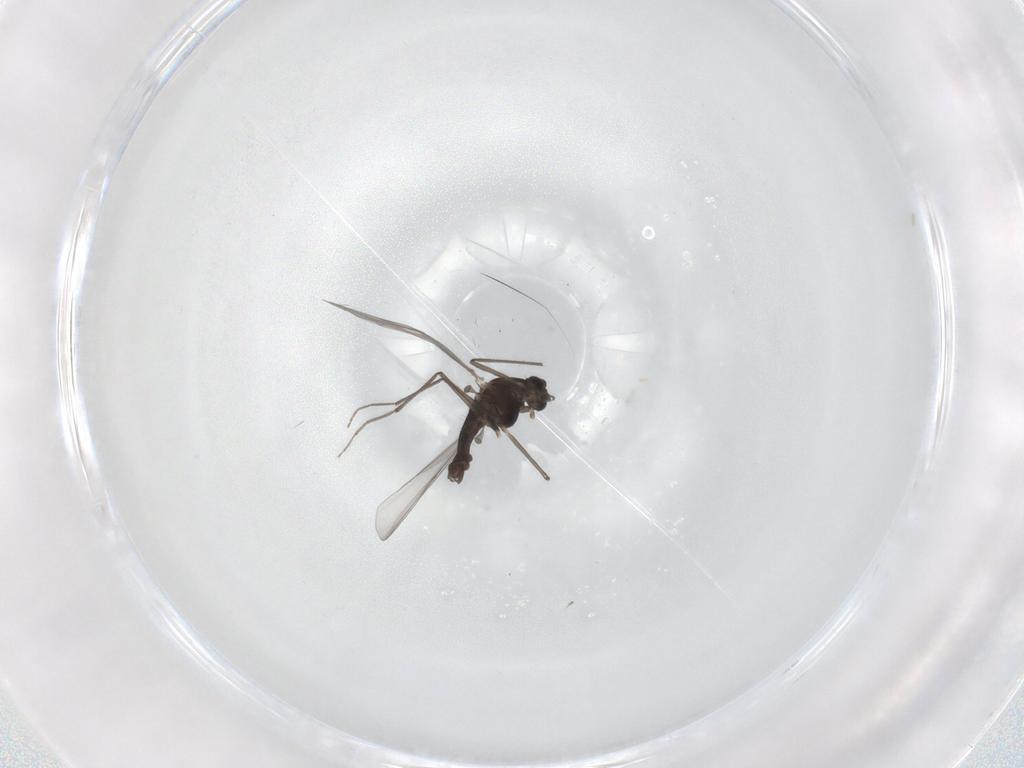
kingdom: Animalia
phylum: Arthropoda
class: Insecta
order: Diptera
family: Chironomidae
